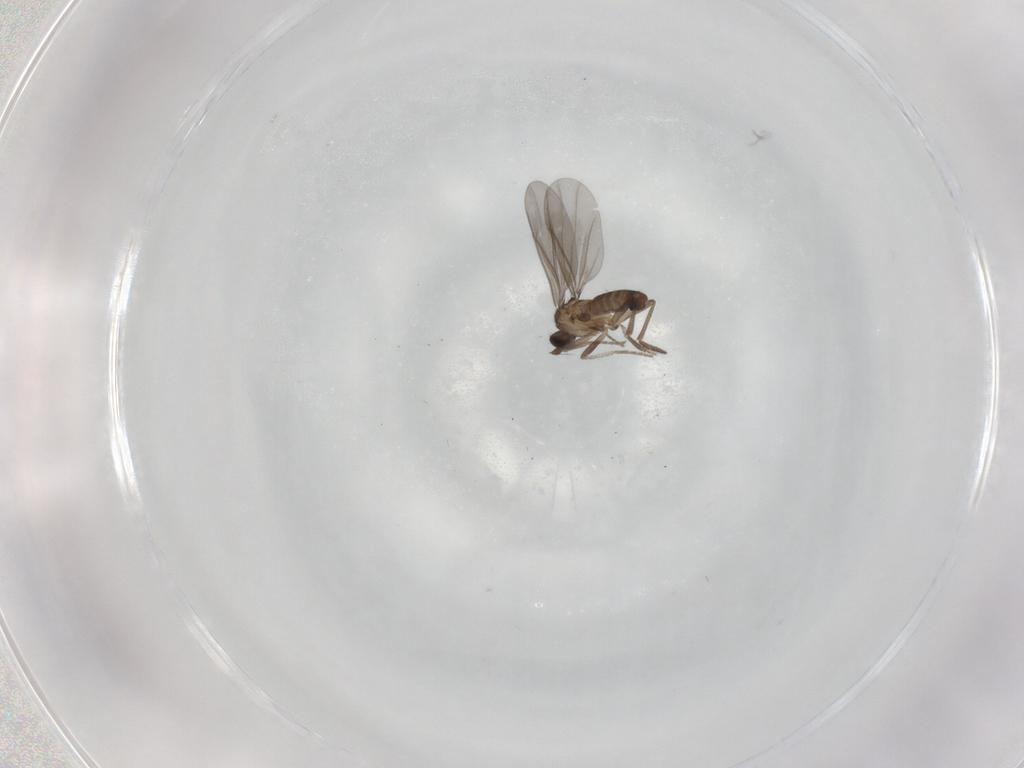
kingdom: Animalia
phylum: Arthropoda
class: Insecta
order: Diptera
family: Phoridae
